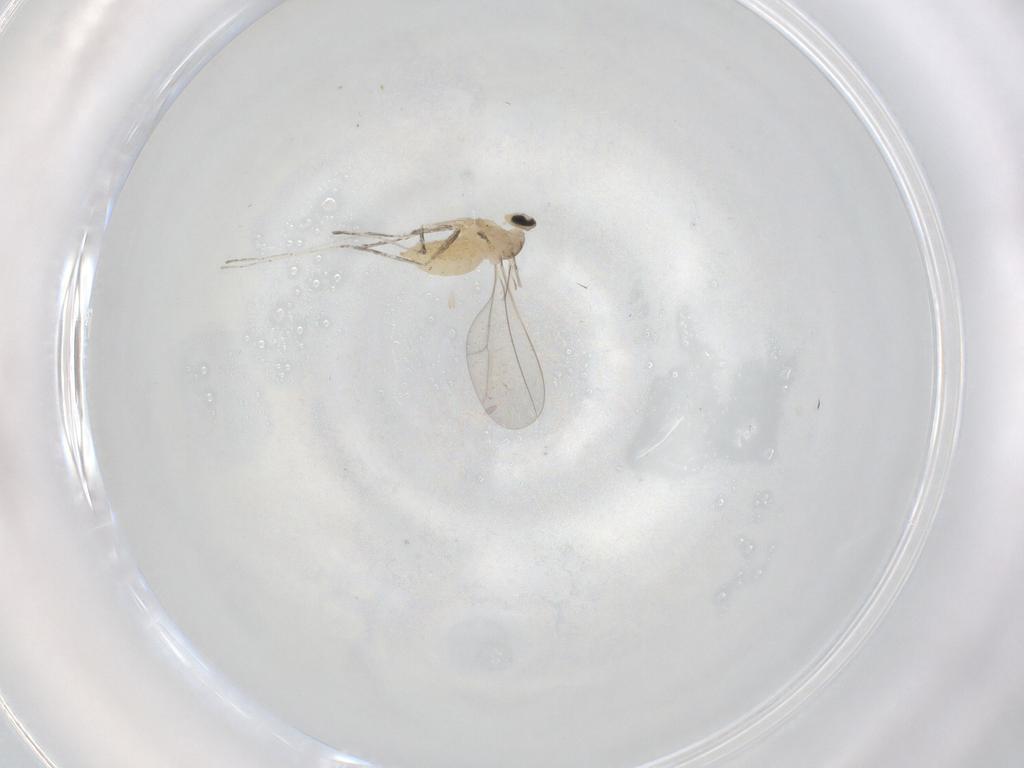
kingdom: Animalia
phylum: Arthropoda
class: Insecta
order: Diptera
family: Cecidomyiidae
